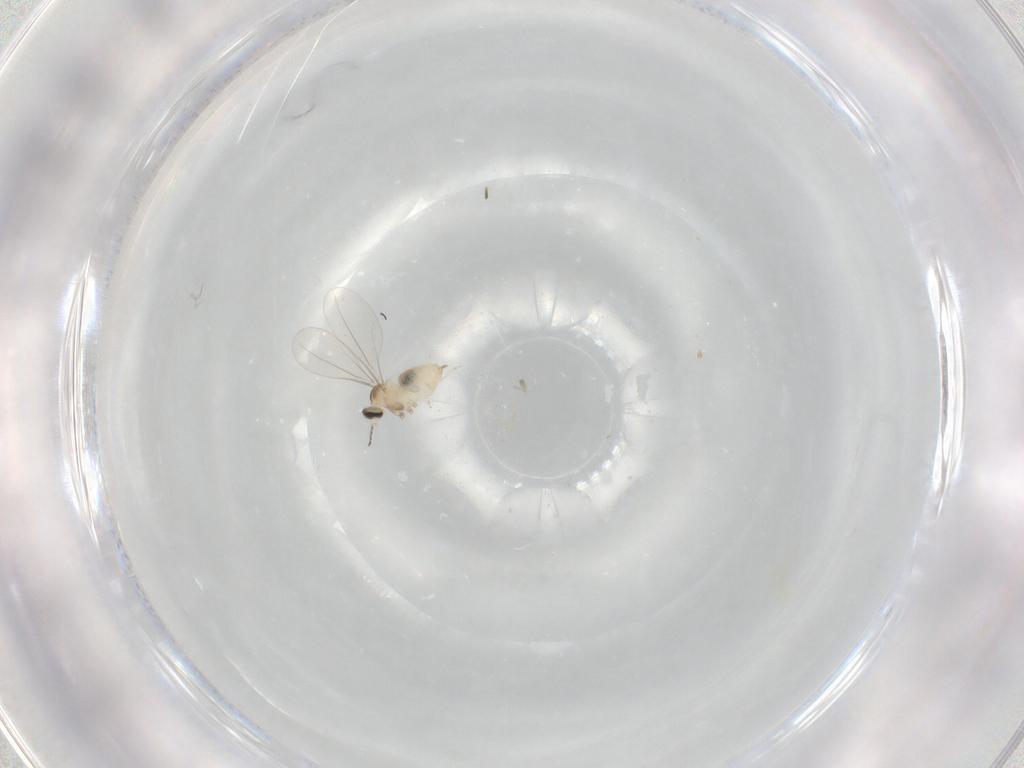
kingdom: Animalia
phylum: Arthropoda
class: Insecta
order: Diptera
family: Cecidomyiidae
